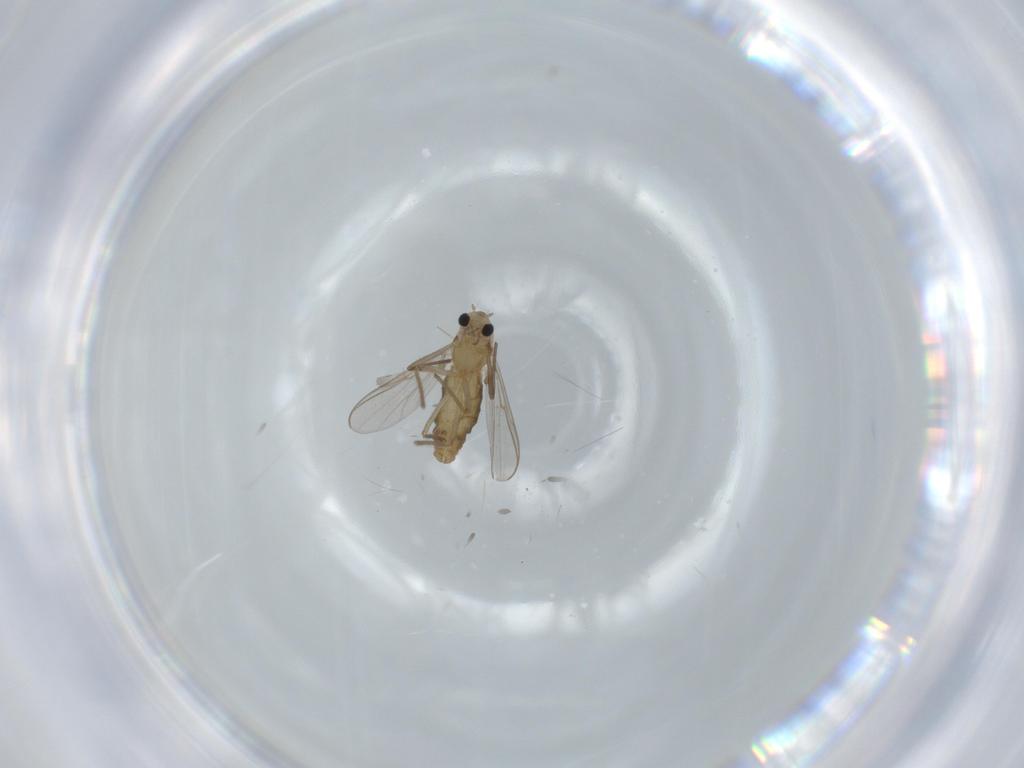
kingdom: Animalia
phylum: Arthropoda
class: Insecta
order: Diptera
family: Chironomidae
